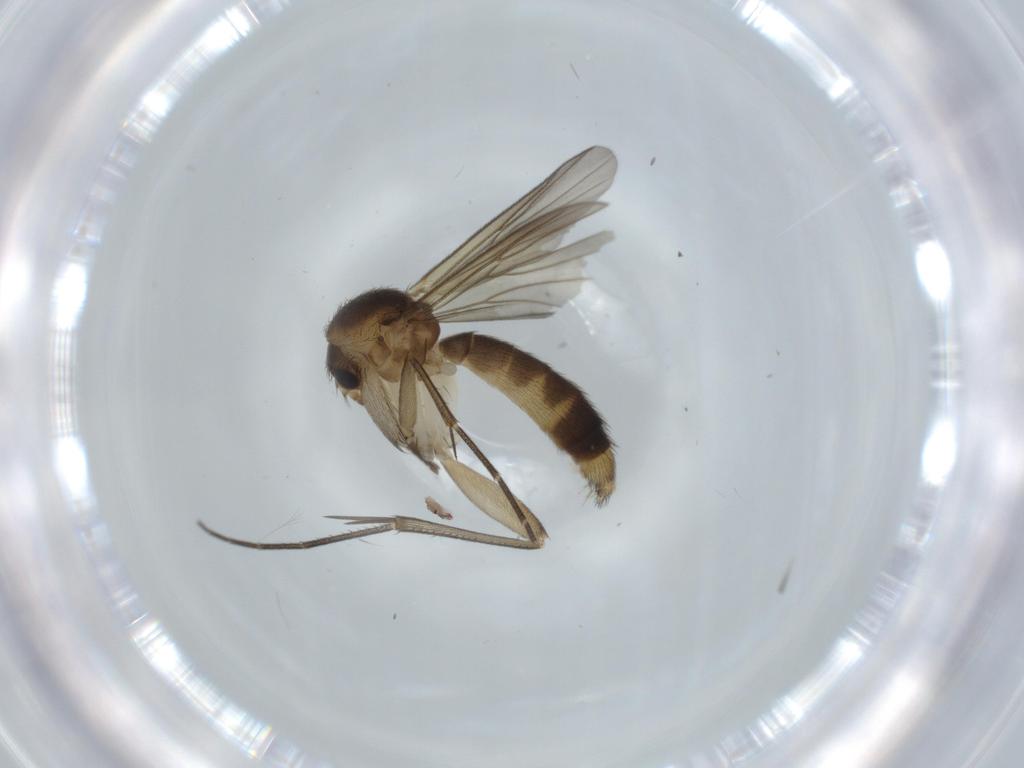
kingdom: Animalia
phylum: Arthropoda
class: Insecta
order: Diptera
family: Mycetophilidae
